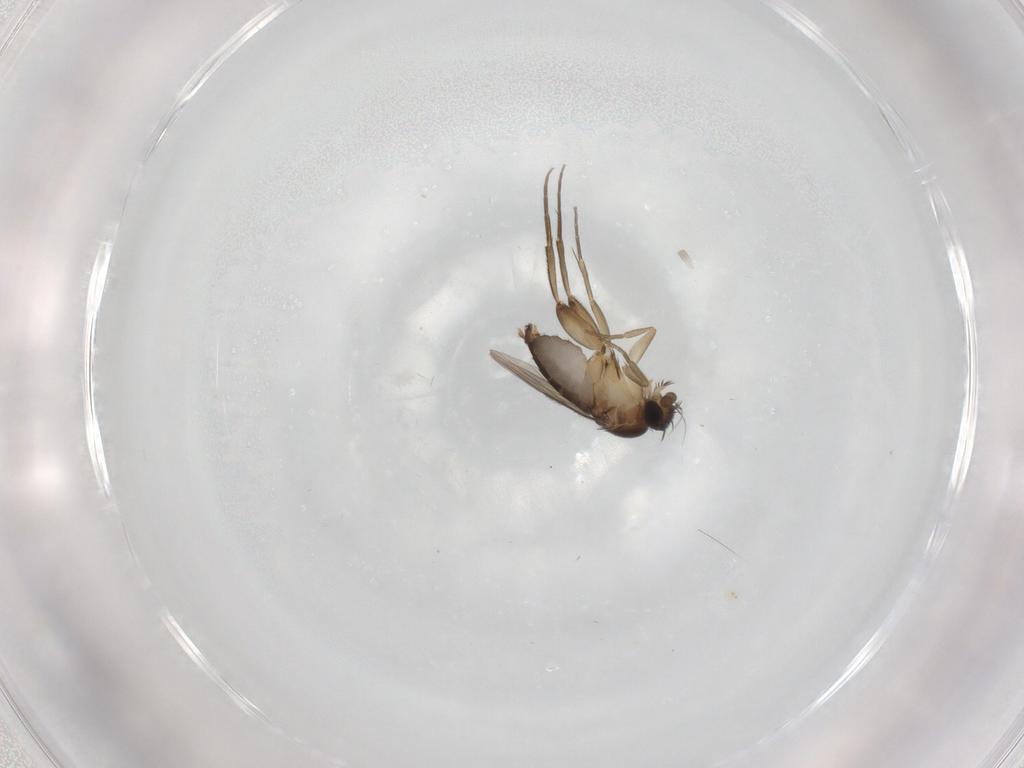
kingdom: Animalia
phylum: Arthropoda
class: Insecta
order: Diptera
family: Phoridae
